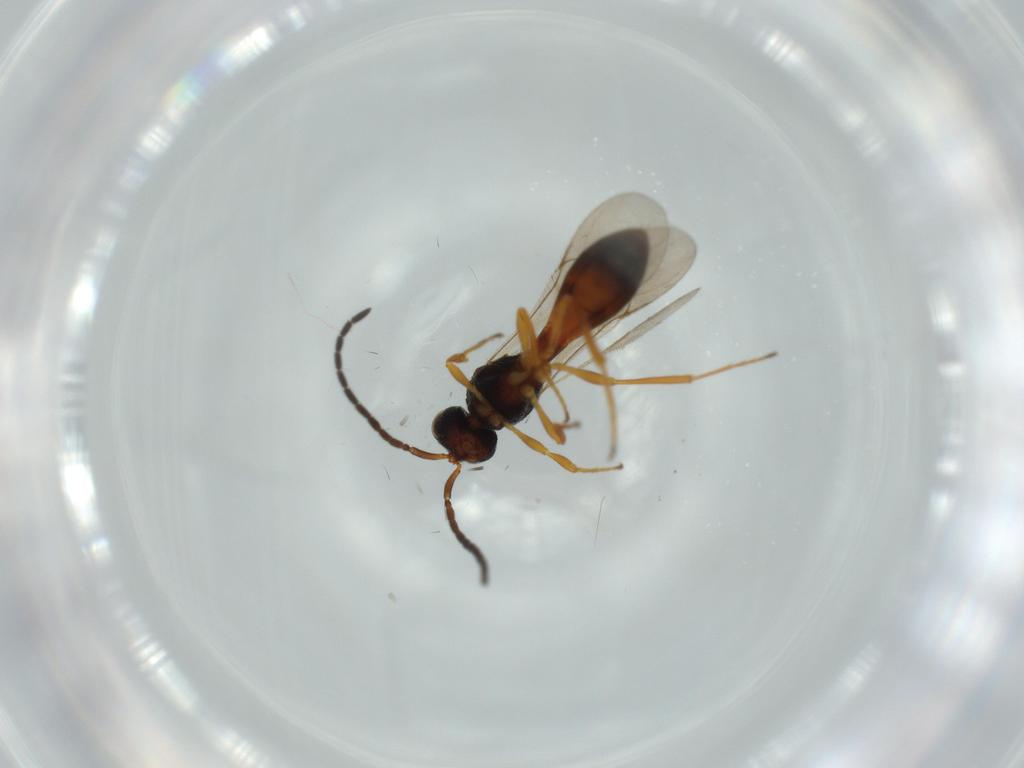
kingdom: Animalia
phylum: Arthropoda
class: Insecta
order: Hymenoptera
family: Scelionidae
